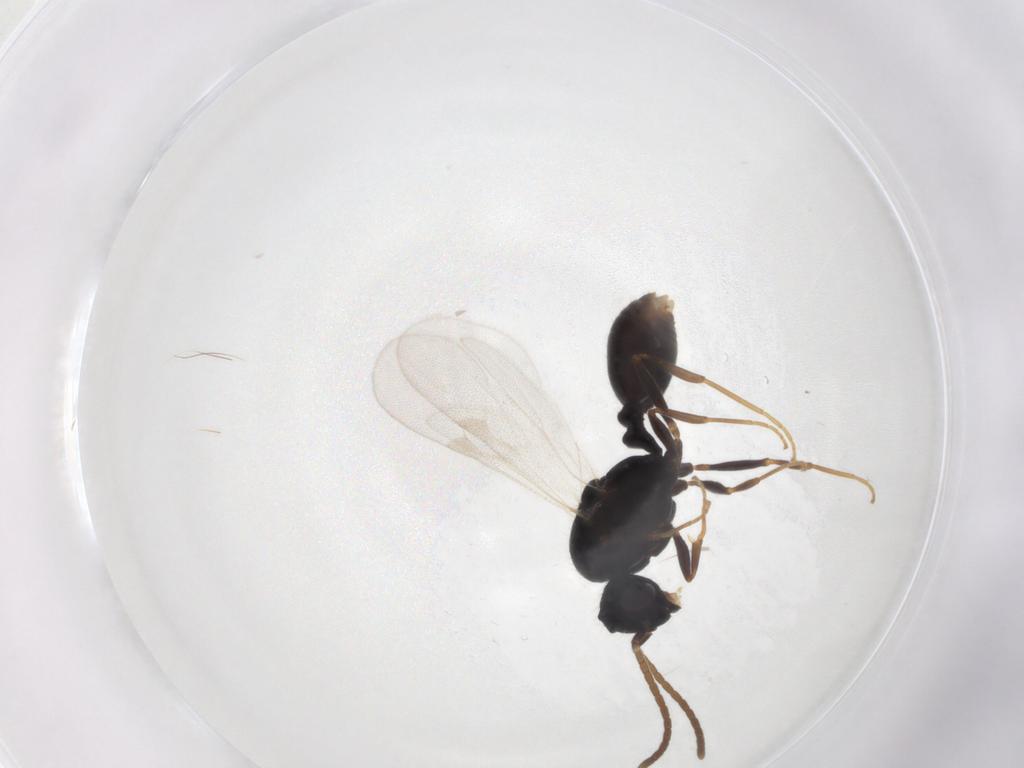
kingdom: Animalia
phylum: Arthropoda
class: Insecta
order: Hymenoptera
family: Formicidae
